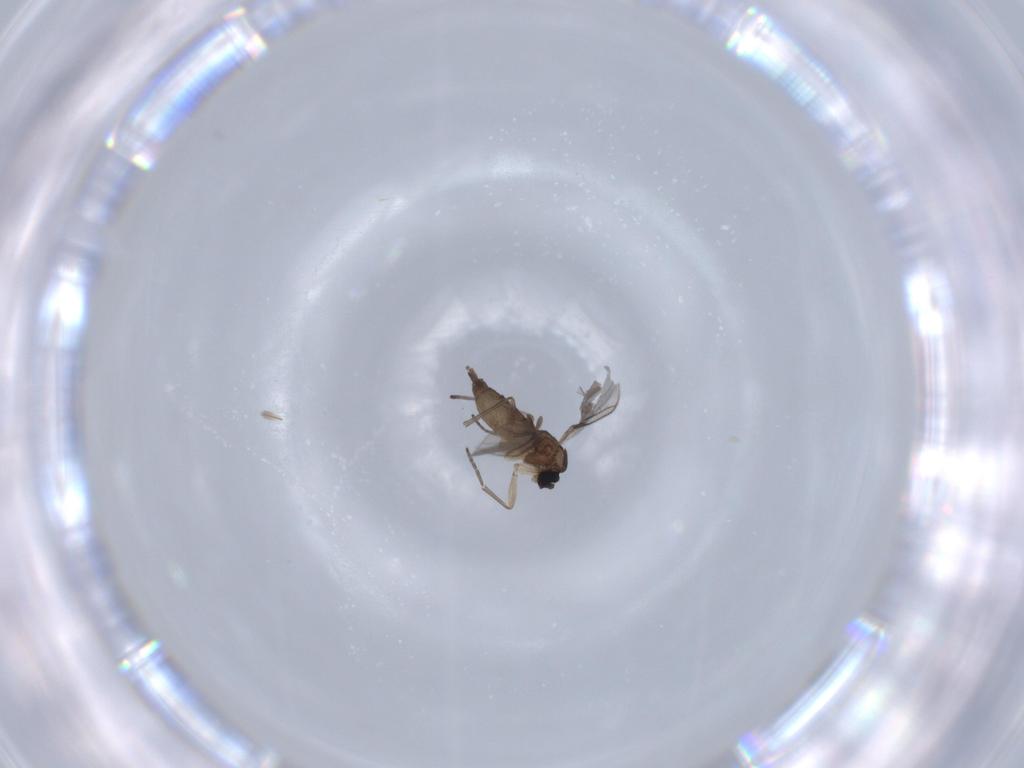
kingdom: Animalia
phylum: Arthropoda
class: Insecta
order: Diptera
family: Sciaridae
